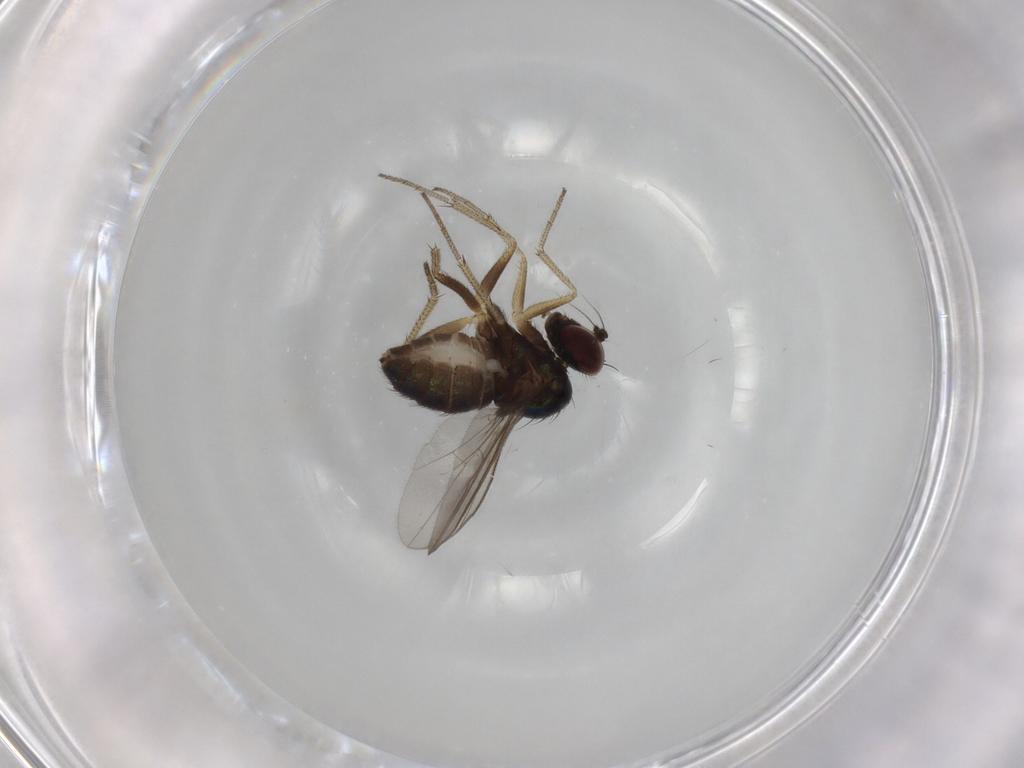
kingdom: Animalia
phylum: Arthropoda
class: Insecta
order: Diptera
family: Dolichopodidae
